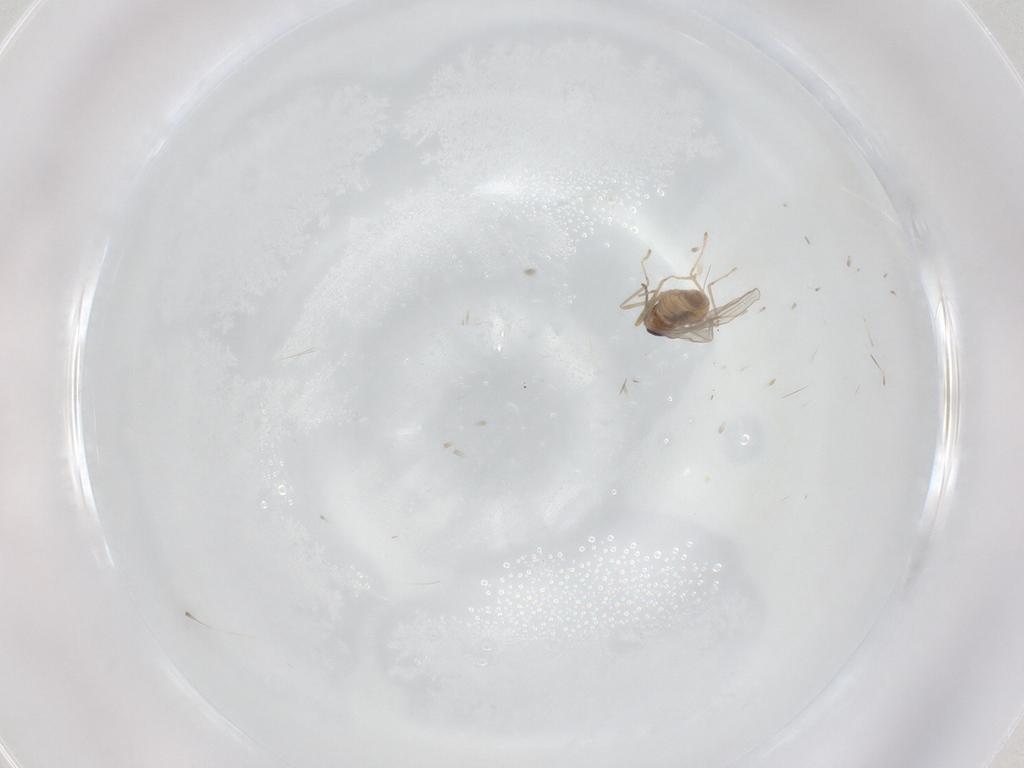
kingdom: Animalia
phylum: Arthropoda
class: Insecta
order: Diptera
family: Cecidomyiidae
